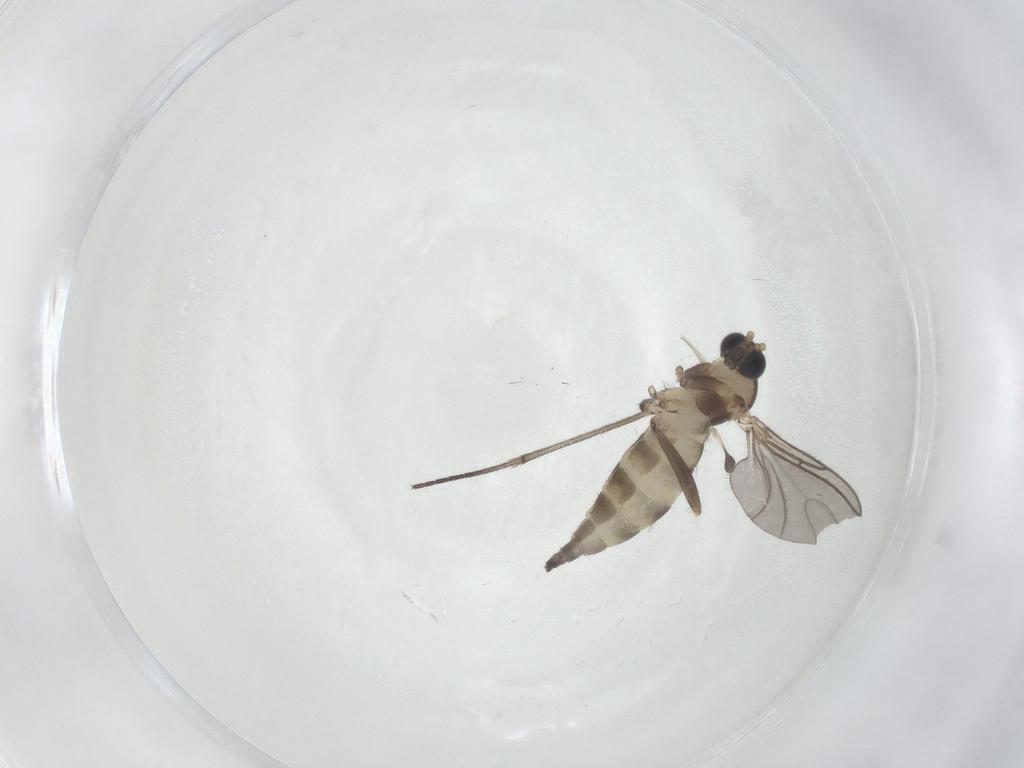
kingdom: Animalia
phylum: Arthropoda
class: Insecta
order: Diptera
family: Sciaridae
